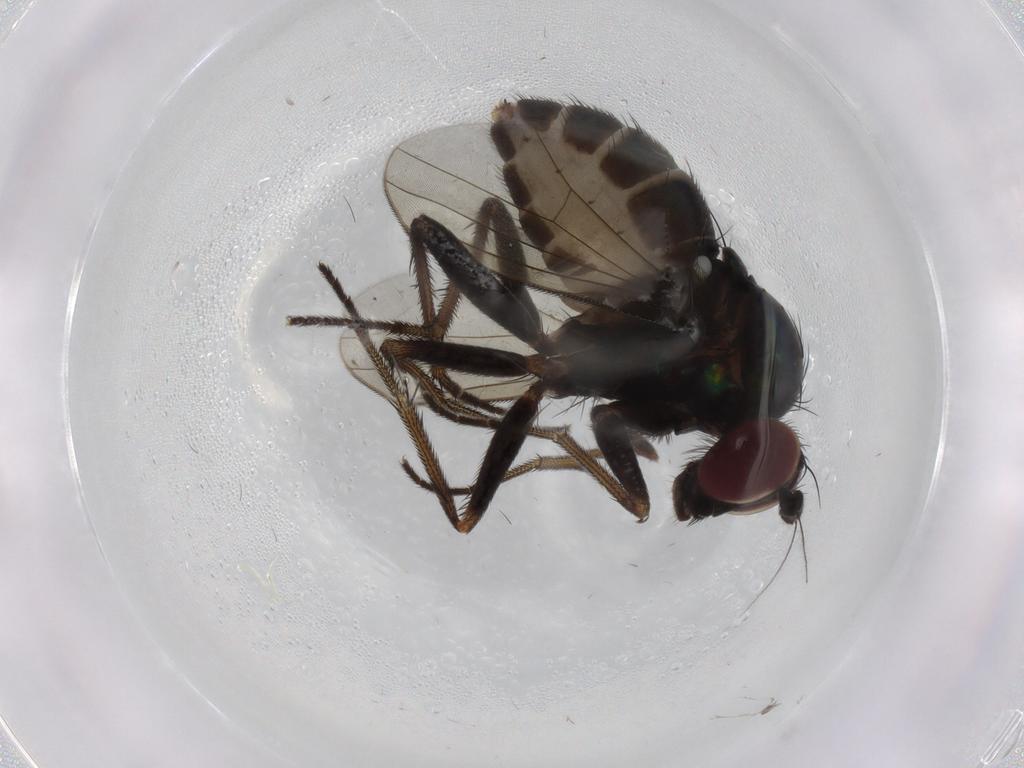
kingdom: Animalia
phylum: Arthropoda
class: Insecta
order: Diptera
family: Dolichopodidae
